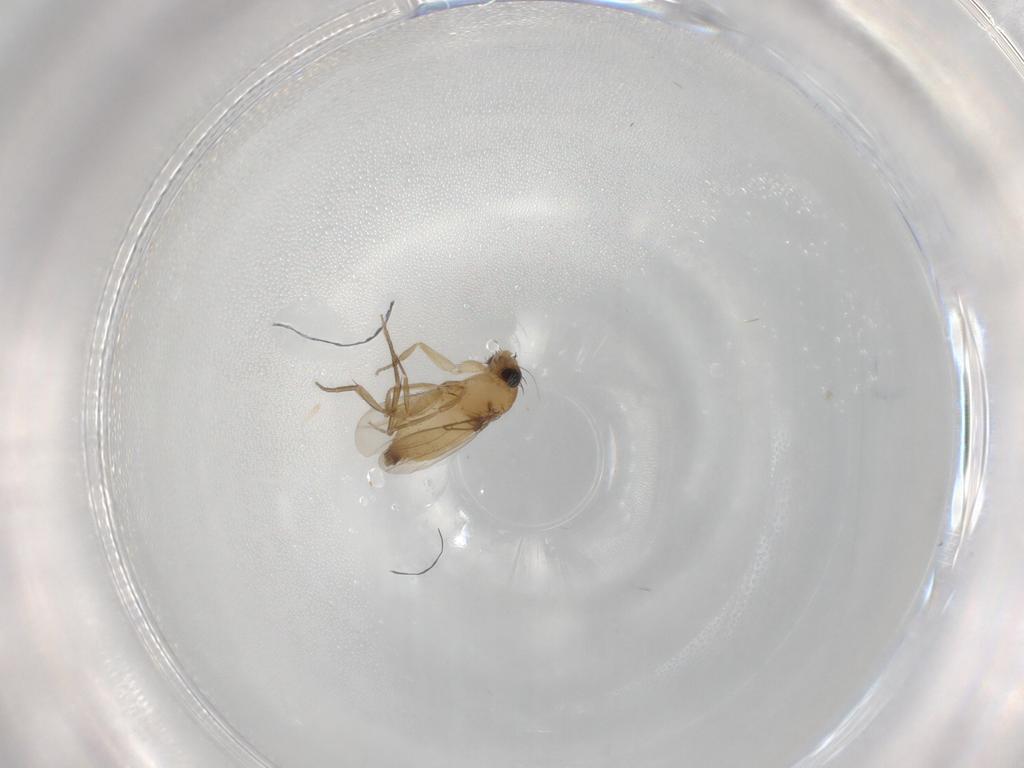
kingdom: Animalia
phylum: Arthropoda
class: Insecta
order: Diptera
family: Phoridae
